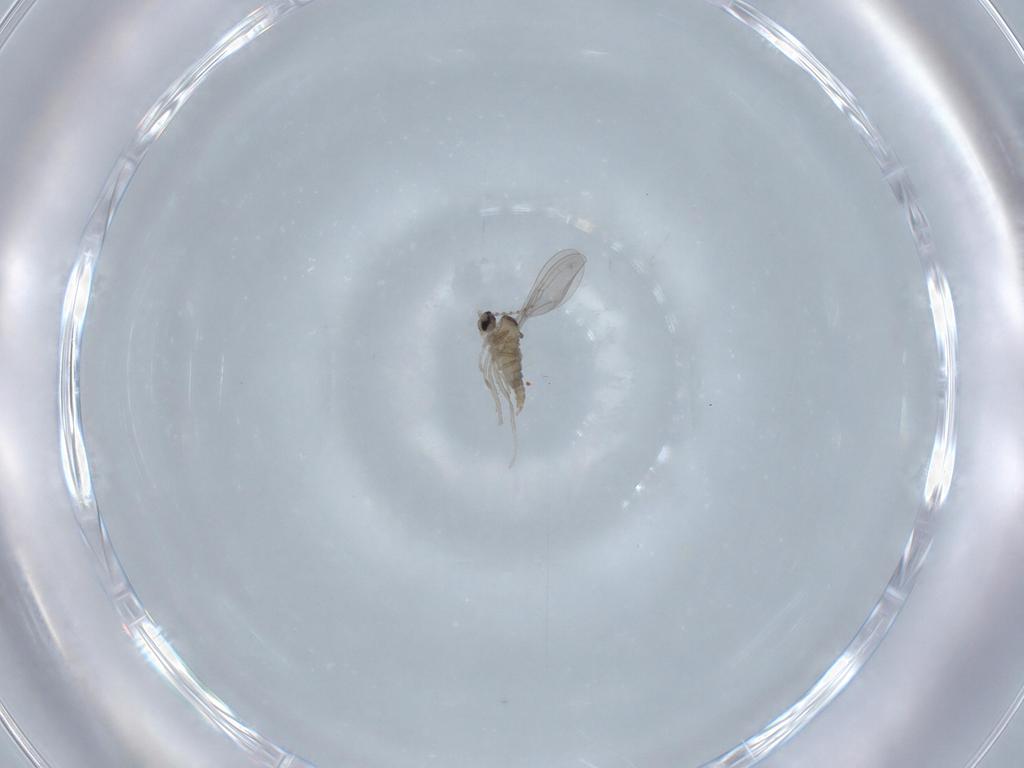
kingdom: Animalia
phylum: Arthropoda
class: Insecta
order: Diptera
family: Cecidomyiidae
